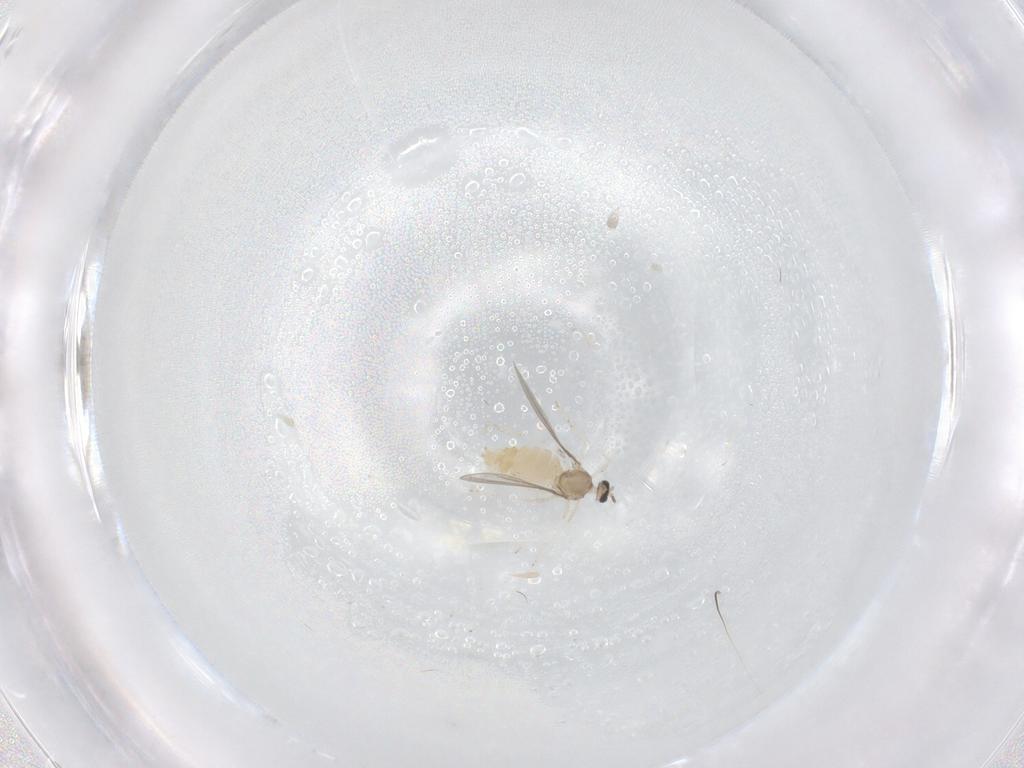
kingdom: Animalia
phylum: Arthropoda
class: Insecta
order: Diptera
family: Cecidomyiidae
